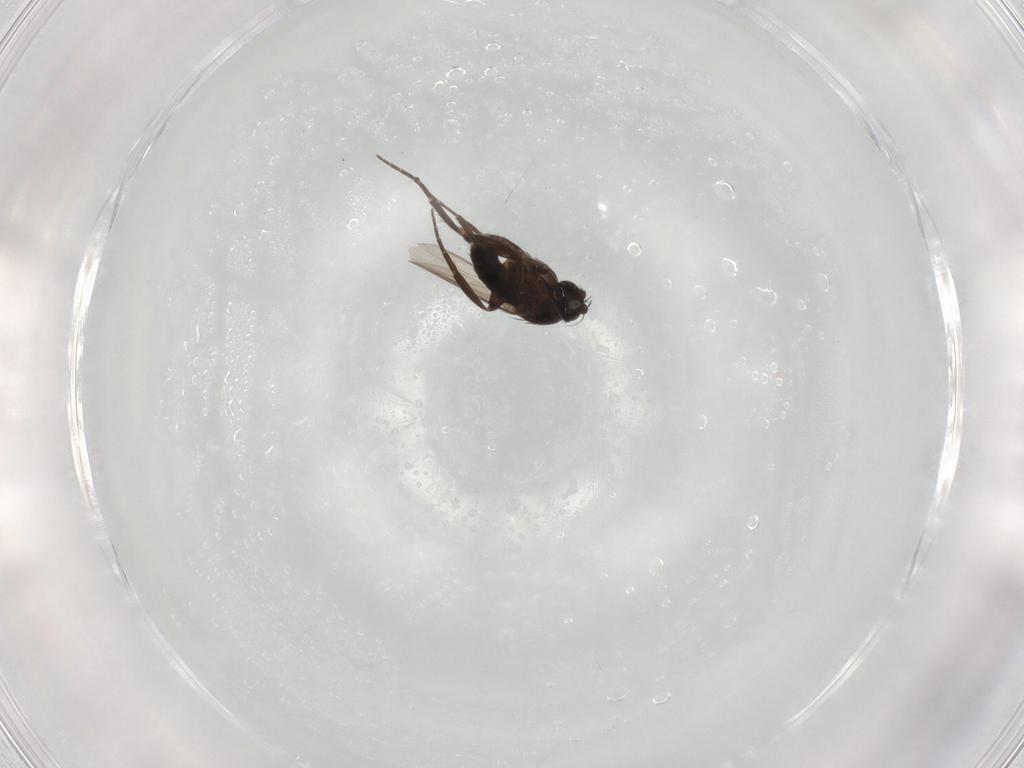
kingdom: Animalia
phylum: Arthropoda
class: Insecta
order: Diptera
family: Phoridae
